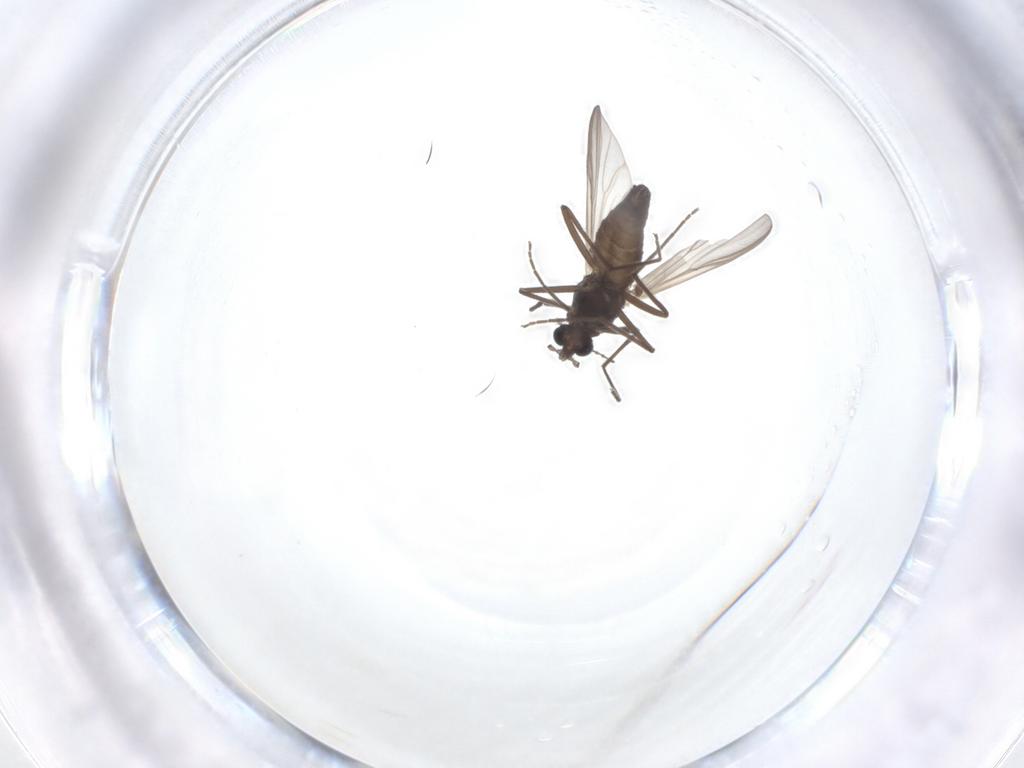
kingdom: Animalia
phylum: Arthropoda
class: Insecta
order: Diptera
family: Chironomidae
